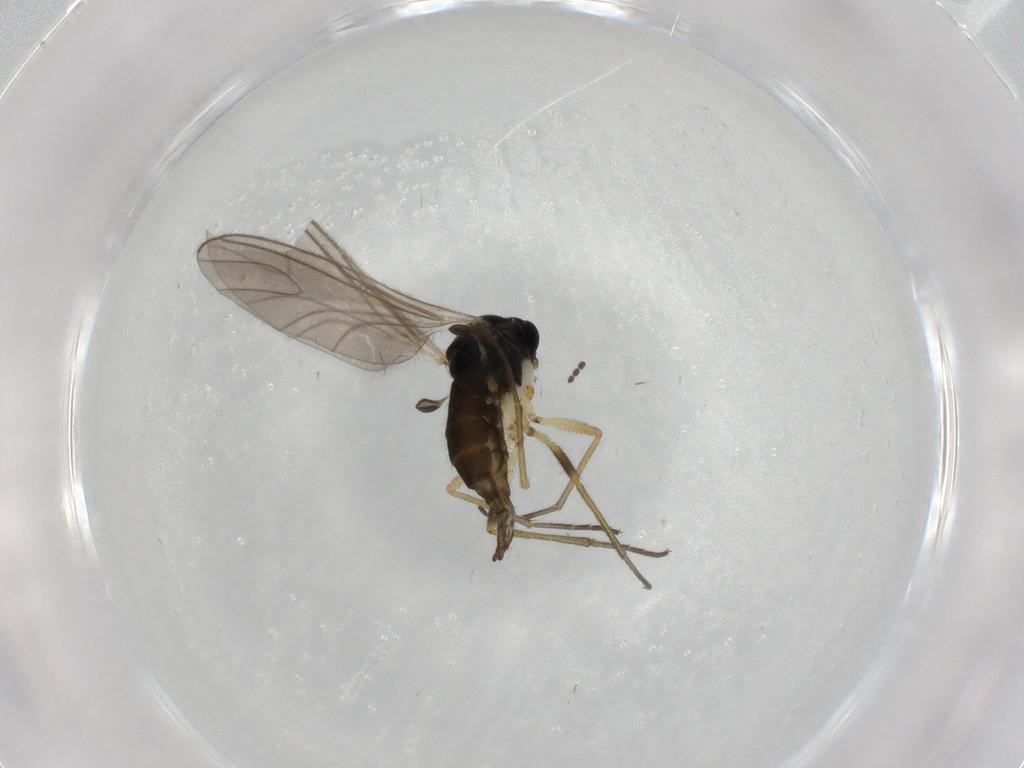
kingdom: Animalia
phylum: Arthropoda
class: Insecta
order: Diptera
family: Sciaridae
